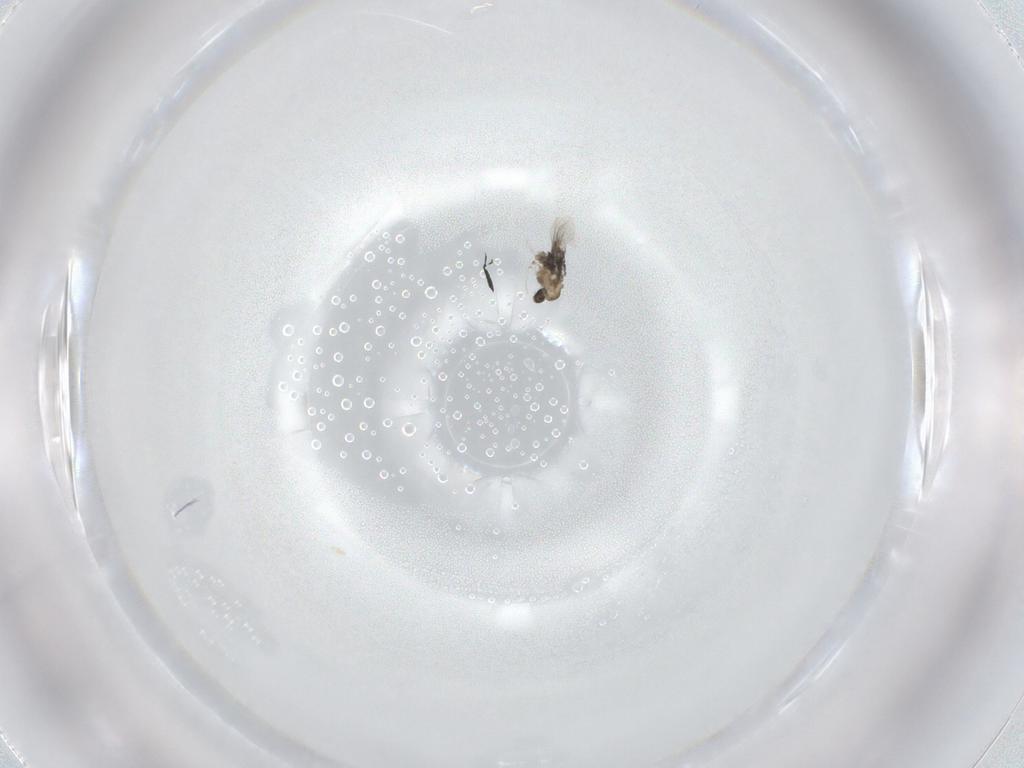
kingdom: Animalia
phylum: Arthropoda
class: Insecta
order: Diptera
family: Cecidomyiidae
